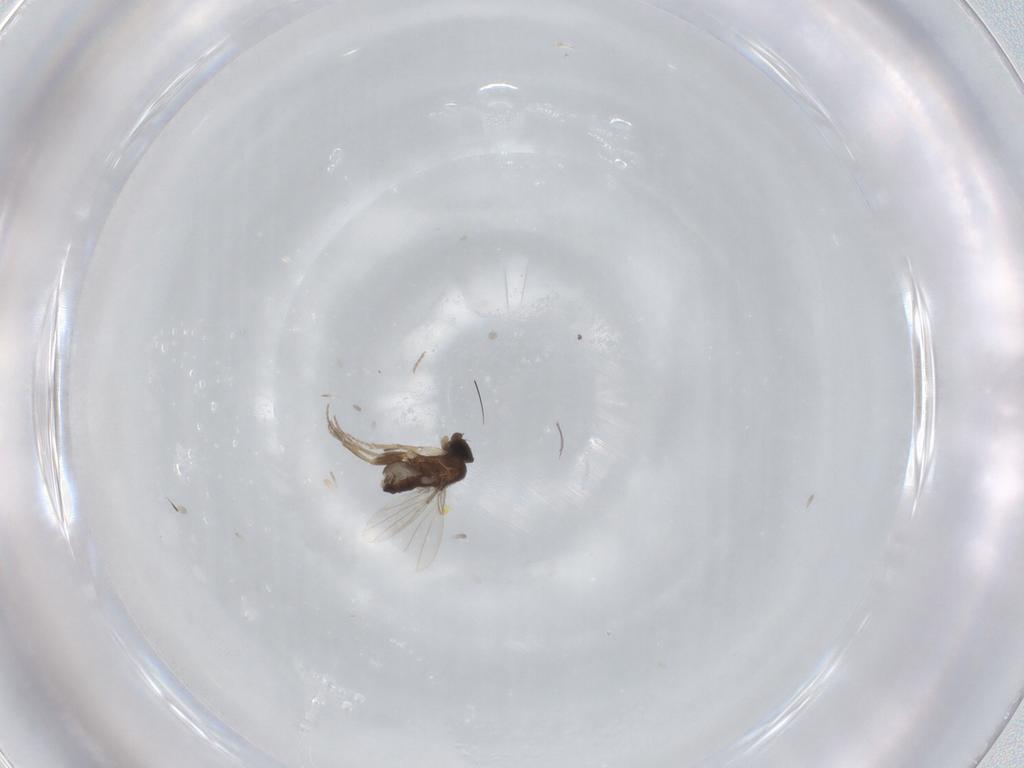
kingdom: Animalia
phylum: Arthropoda
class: Insecta
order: Diptera
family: Phoridae
